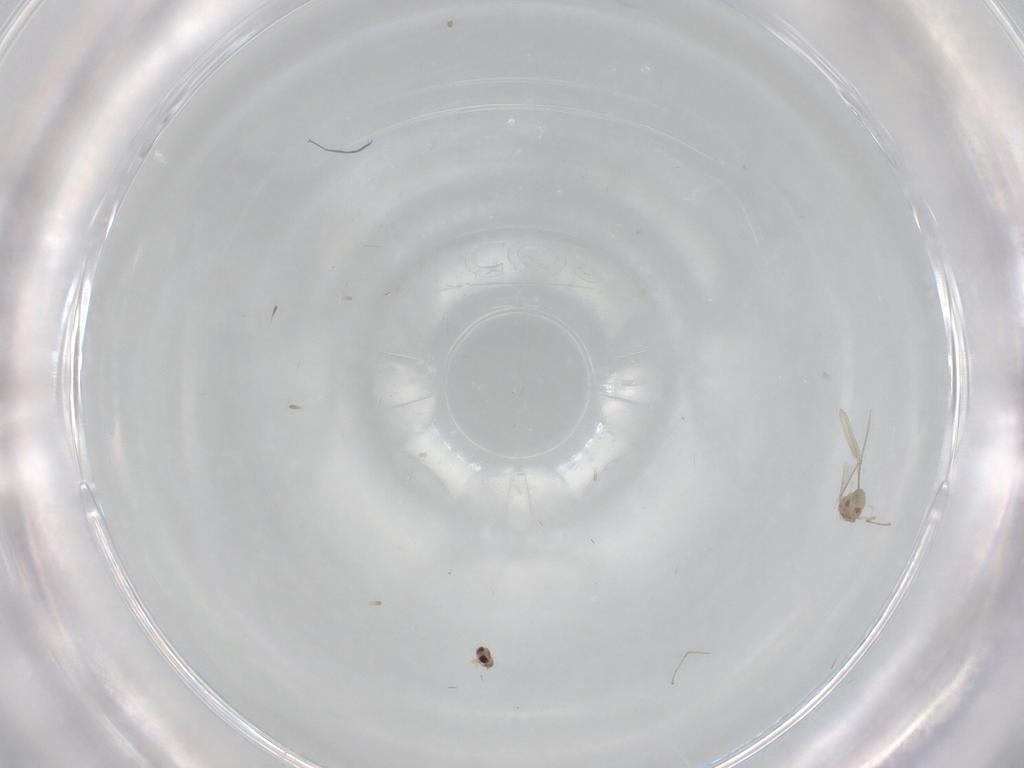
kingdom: Animalia
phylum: Arthropoda
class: Insecta
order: Diptera
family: Cecidomyiidae
